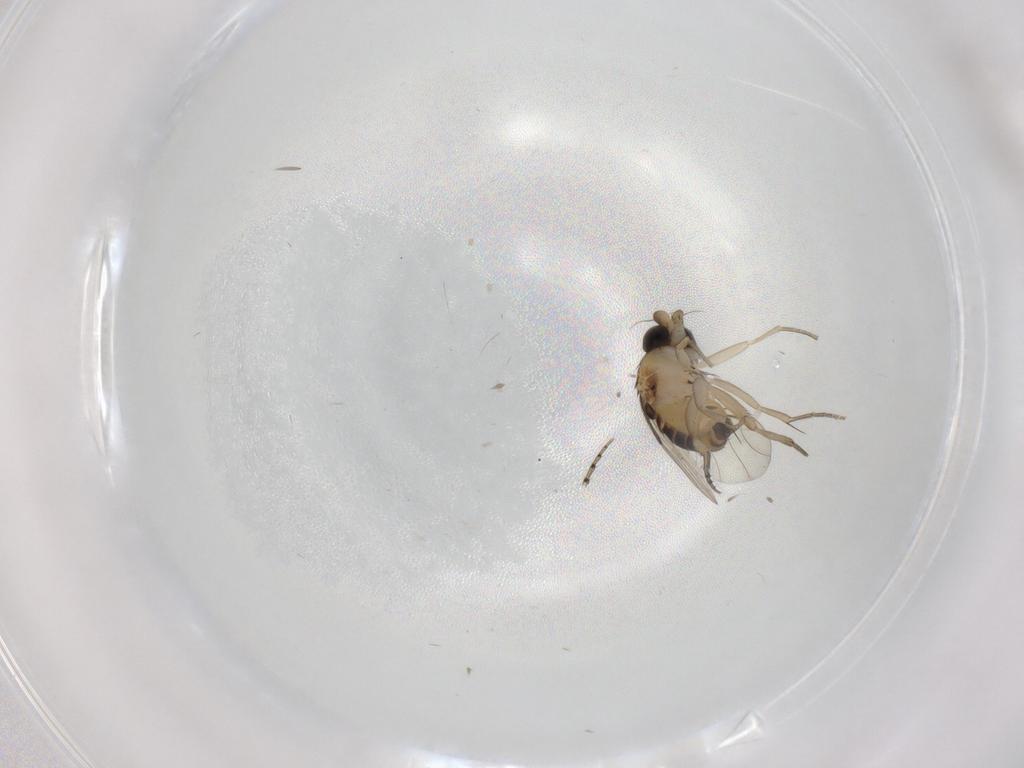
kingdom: Animalia
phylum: Arthropoda
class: Insecta
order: Diptera
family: Phoridae
